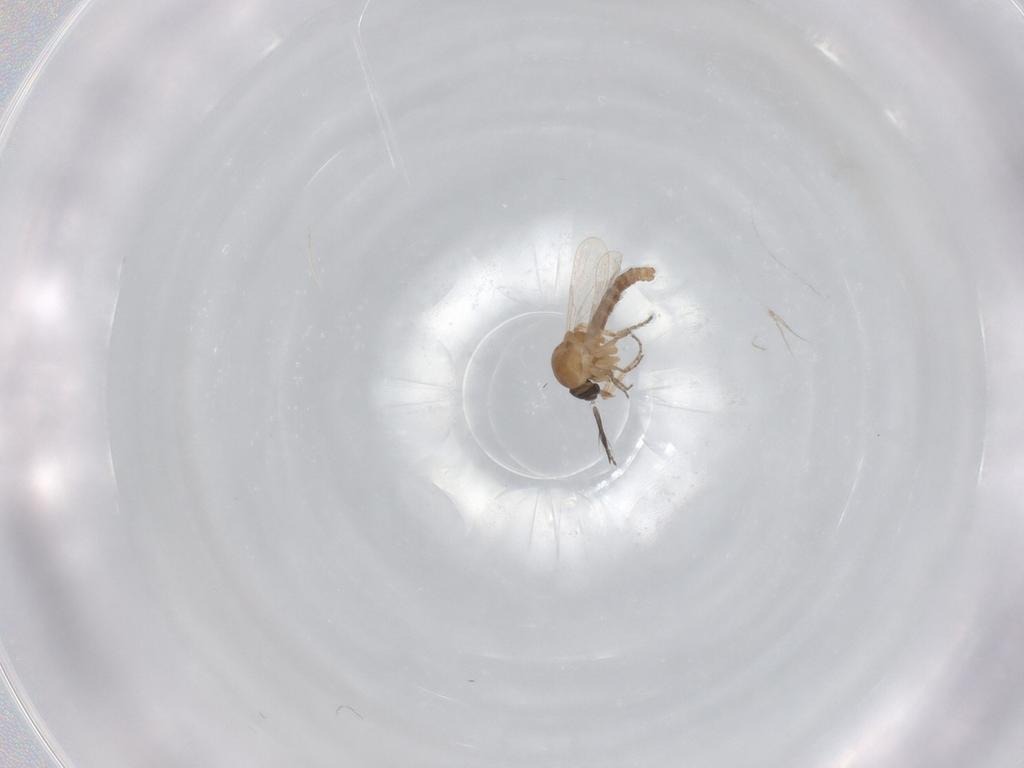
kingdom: Animalia
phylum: Arthropoda
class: Insecta
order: Diptera
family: Ceratopogonidae
